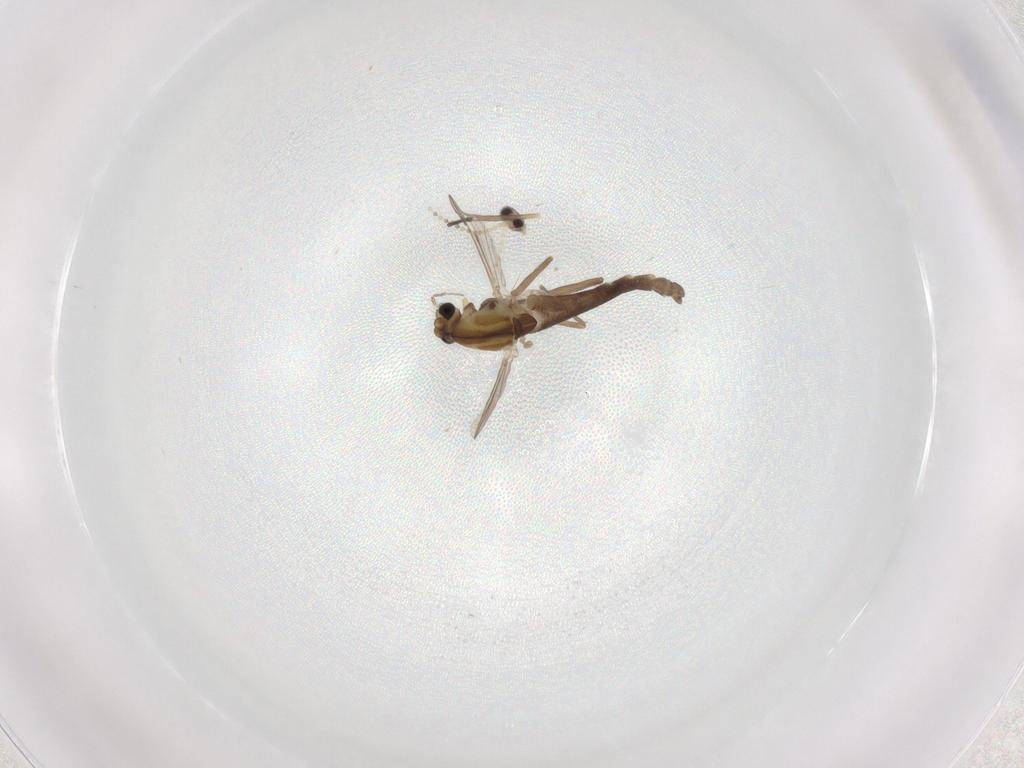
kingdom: Animalia
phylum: Arthropoda
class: Insecta
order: Diptera
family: Chironomidae
